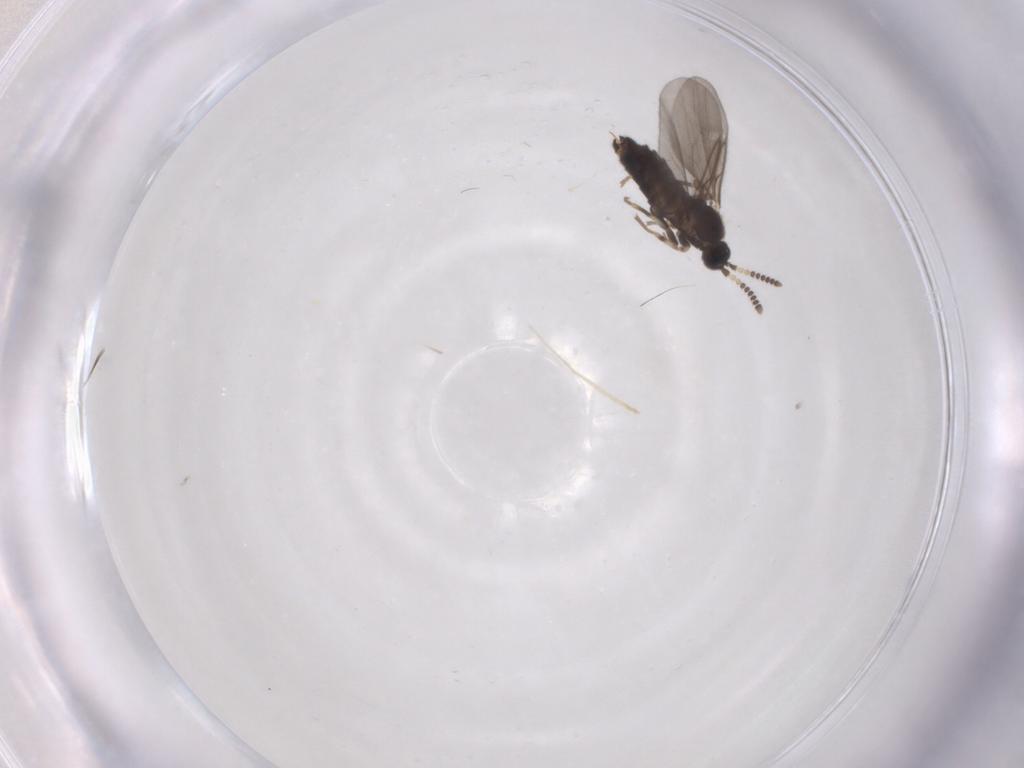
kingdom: Animalia
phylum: Arthropoda
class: Insecta
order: Diptera
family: Scatopsidae
